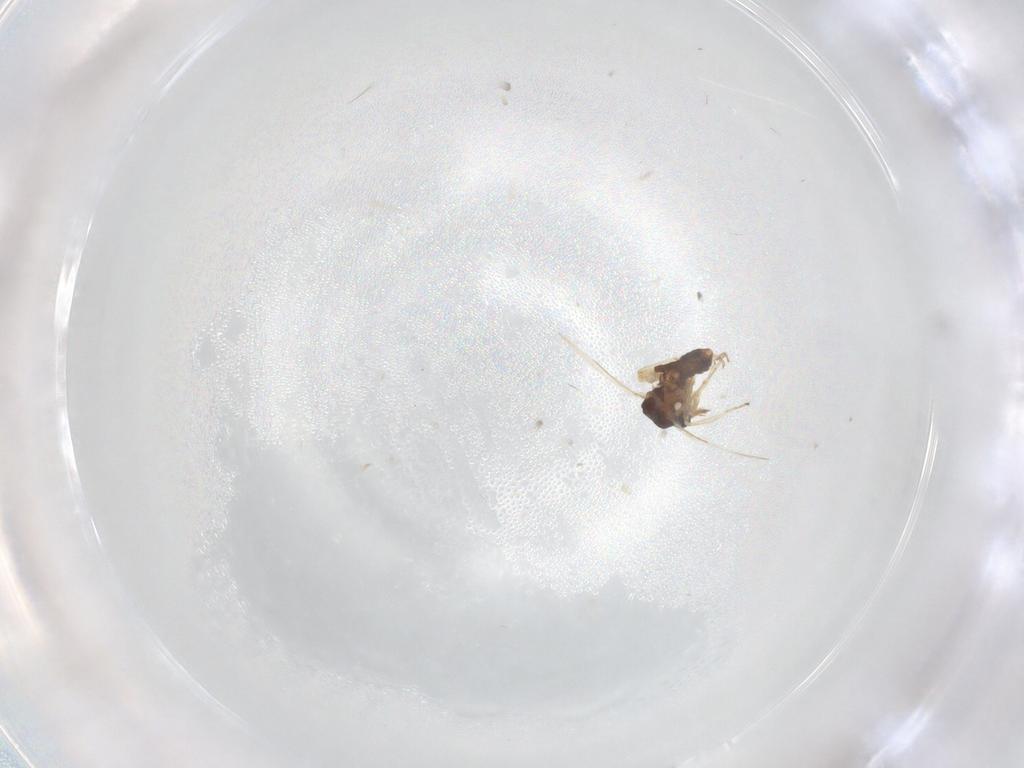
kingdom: Animalia
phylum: Arthropoda
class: Insecta
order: Diptera
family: Ceratopogonidae
